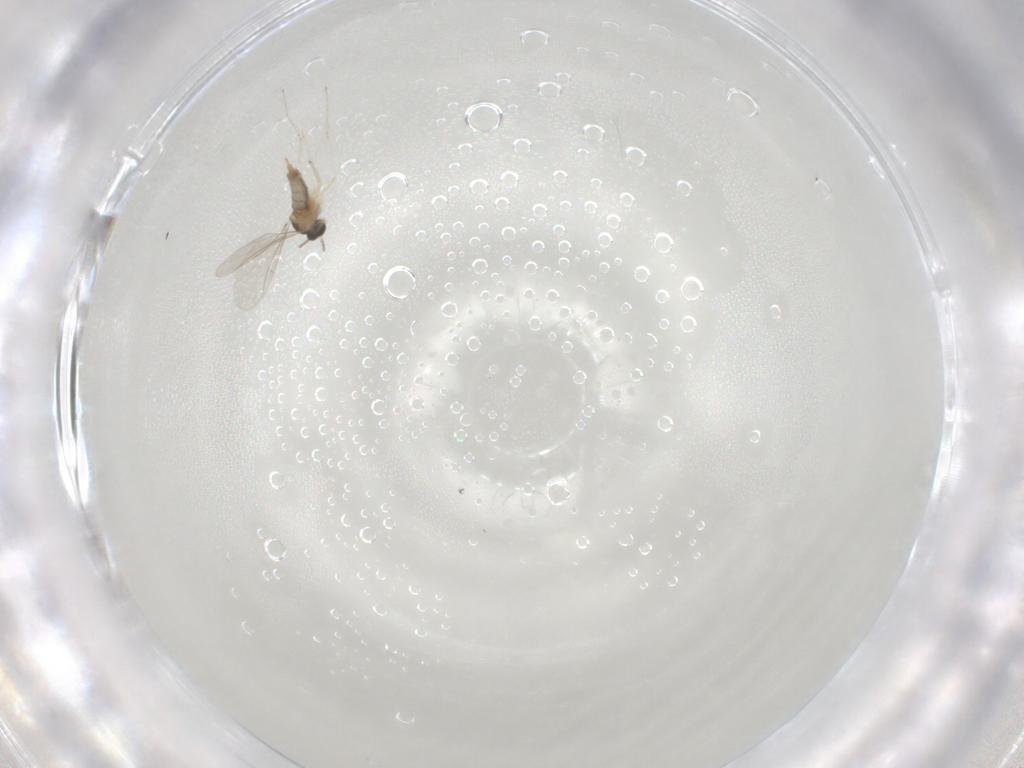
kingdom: Animalia
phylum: Arthropoda
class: Insecta
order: Diptera
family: Cecidomyiidae
